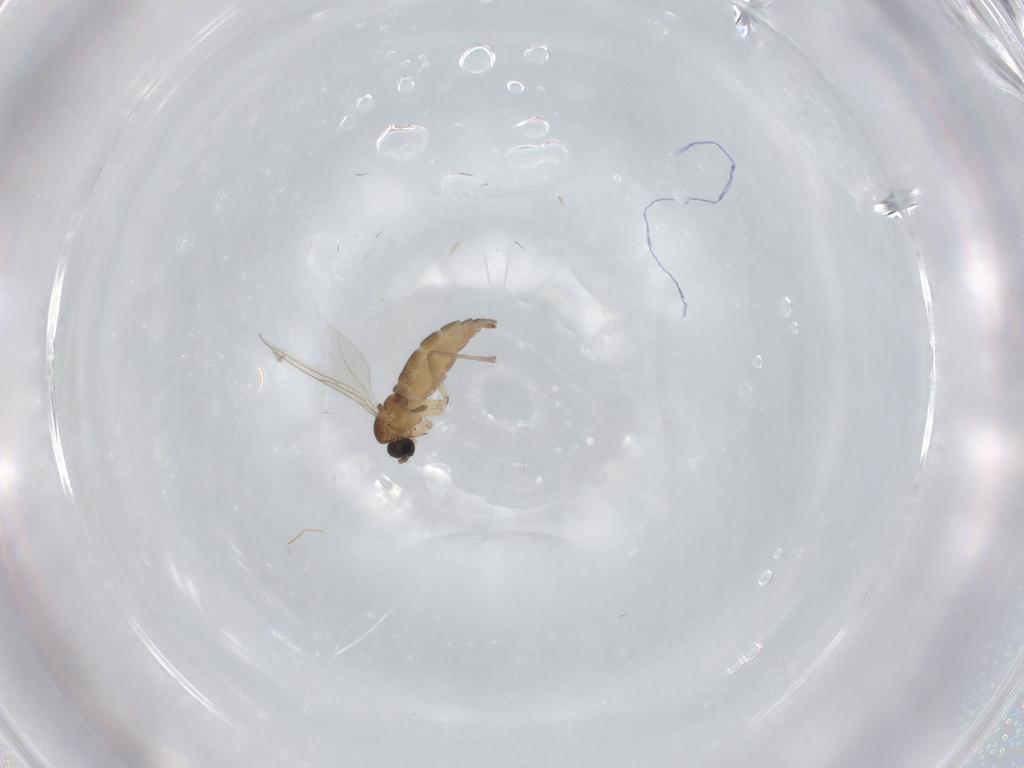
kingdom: Animalia
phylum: Arthropoda
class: Insecta
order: Diptera
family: Sciaridae
